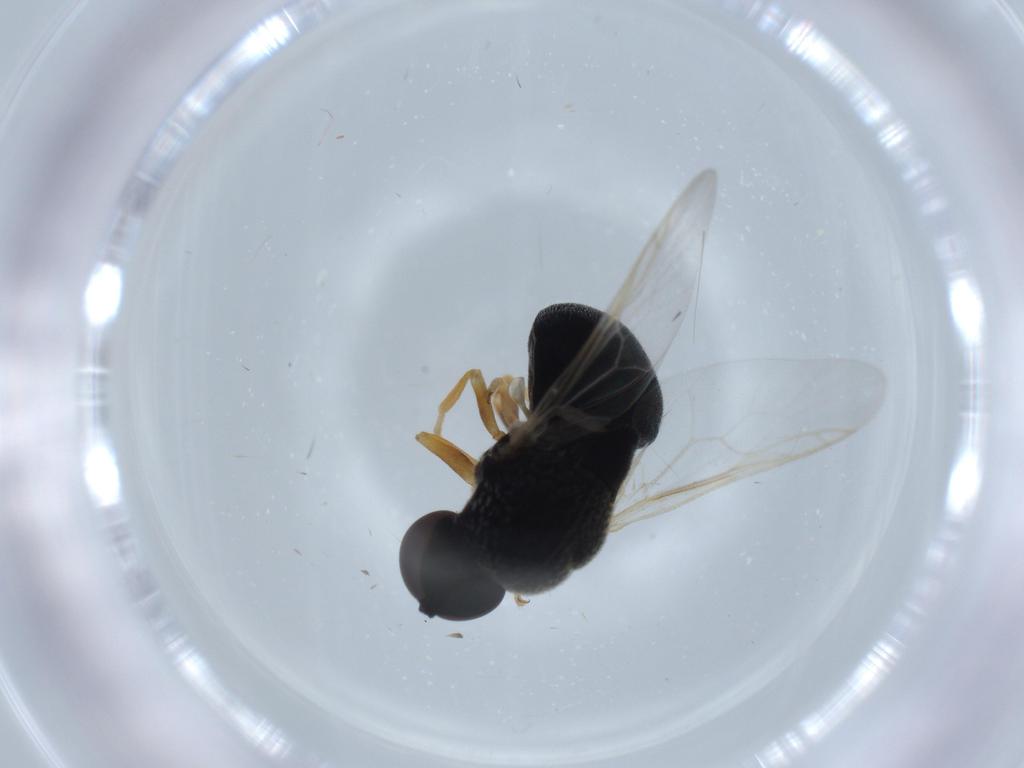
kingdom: Animalia
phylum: Arthropoda
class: Insecta
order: Diptera
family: Stratiomyidae
